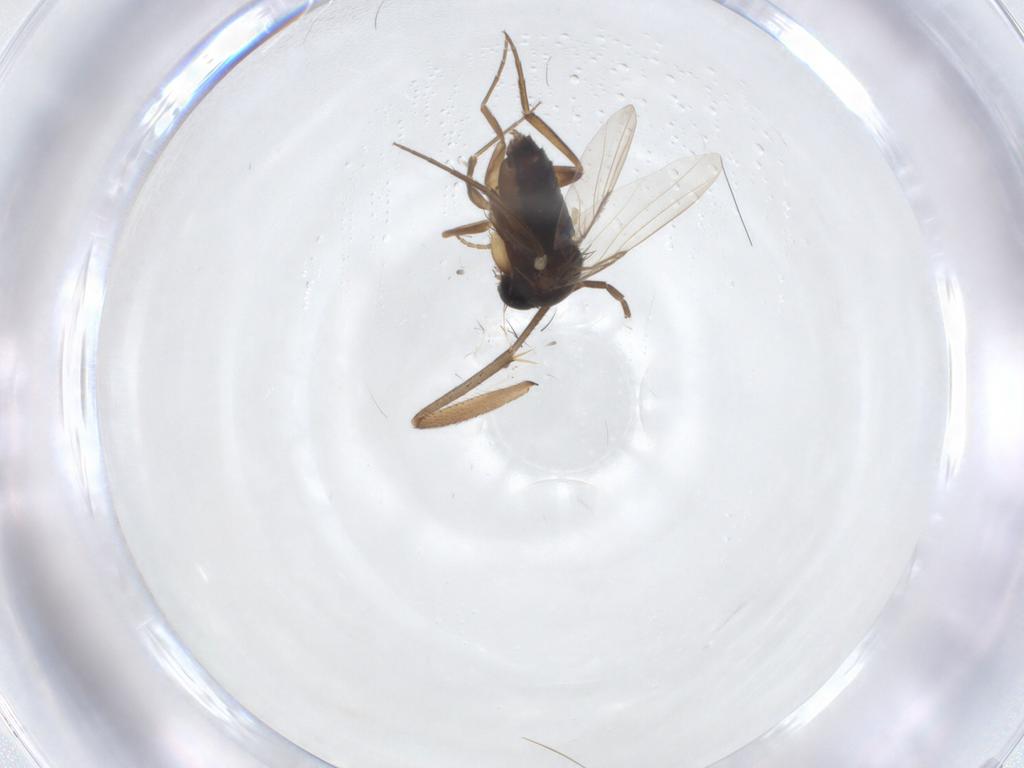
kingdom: Animalia
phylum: Arthropoda
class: Insecta
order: Diptera
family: Phoridae
